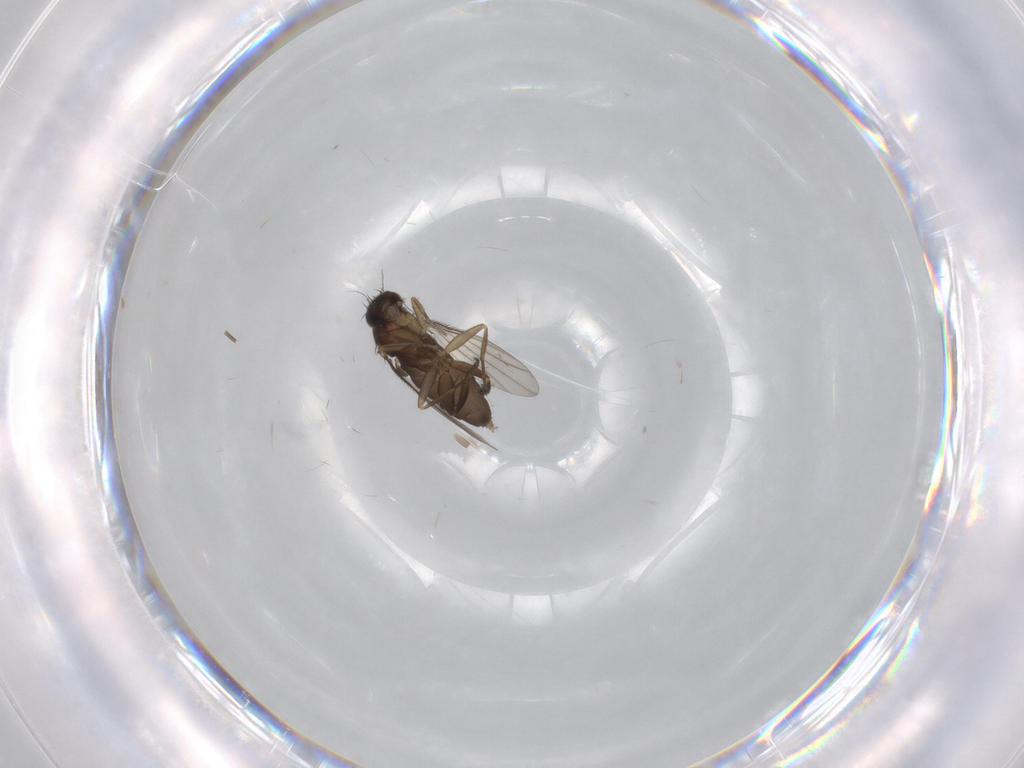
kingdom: Animalia
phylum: Arthropoda
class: Insecta
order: Diptera
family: Phoridae
